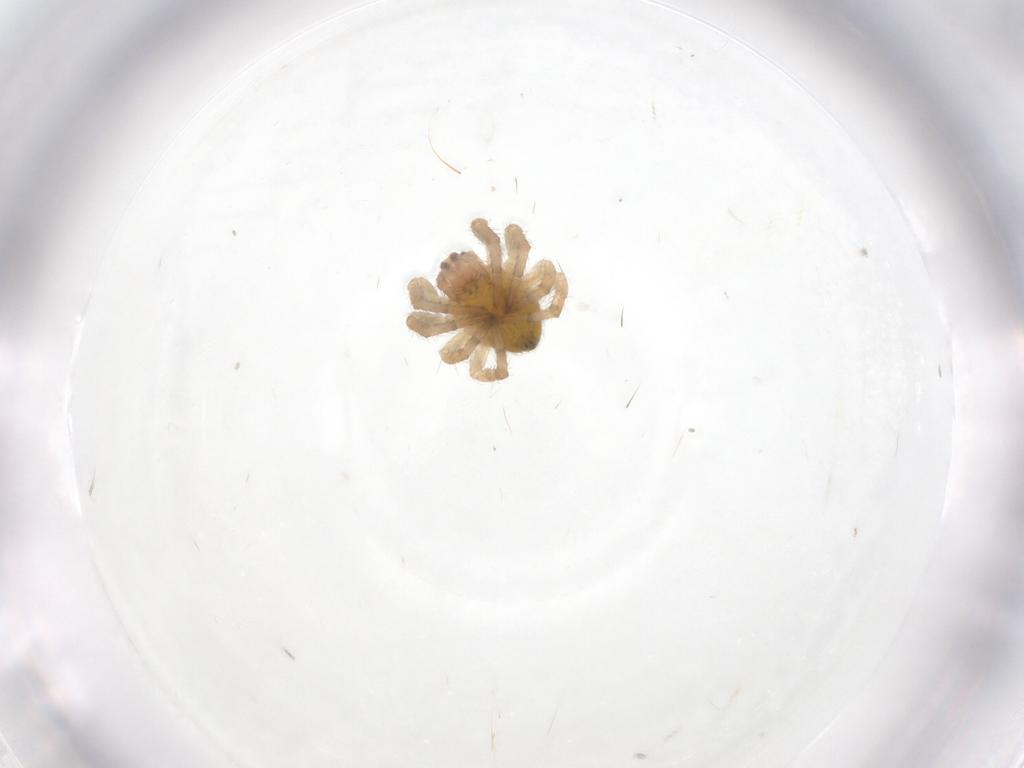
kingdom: Animalia
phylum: Arthropoda
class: Arachnida
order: Araneae
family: Araneidae
